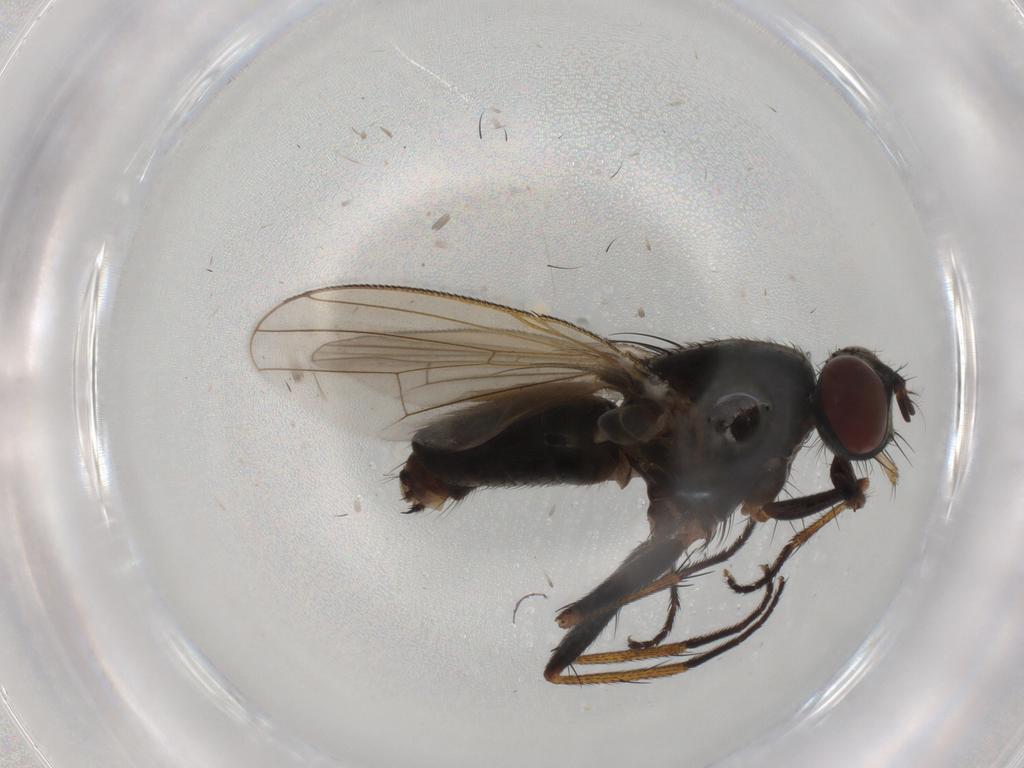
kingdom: Animalia
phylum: Arthropoda
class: Insecta
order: Diptera
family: Muscidae
